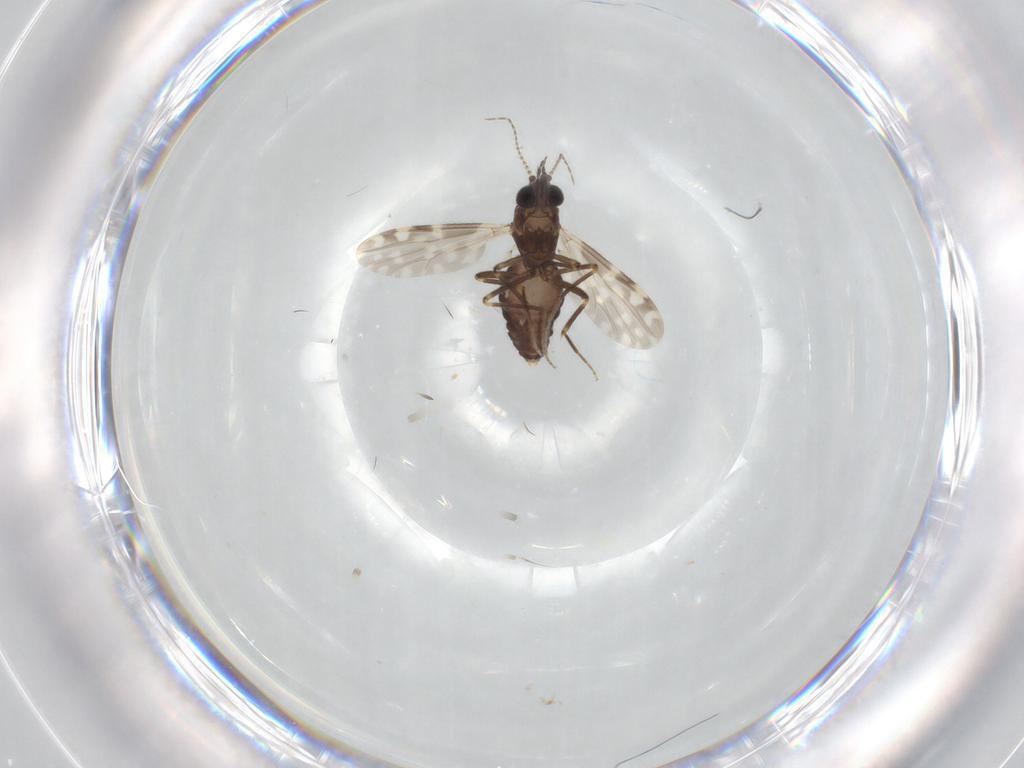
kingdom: Animalia
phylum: Arthropoda
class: Insecta
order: Diptera
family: Ceratopogonidae
